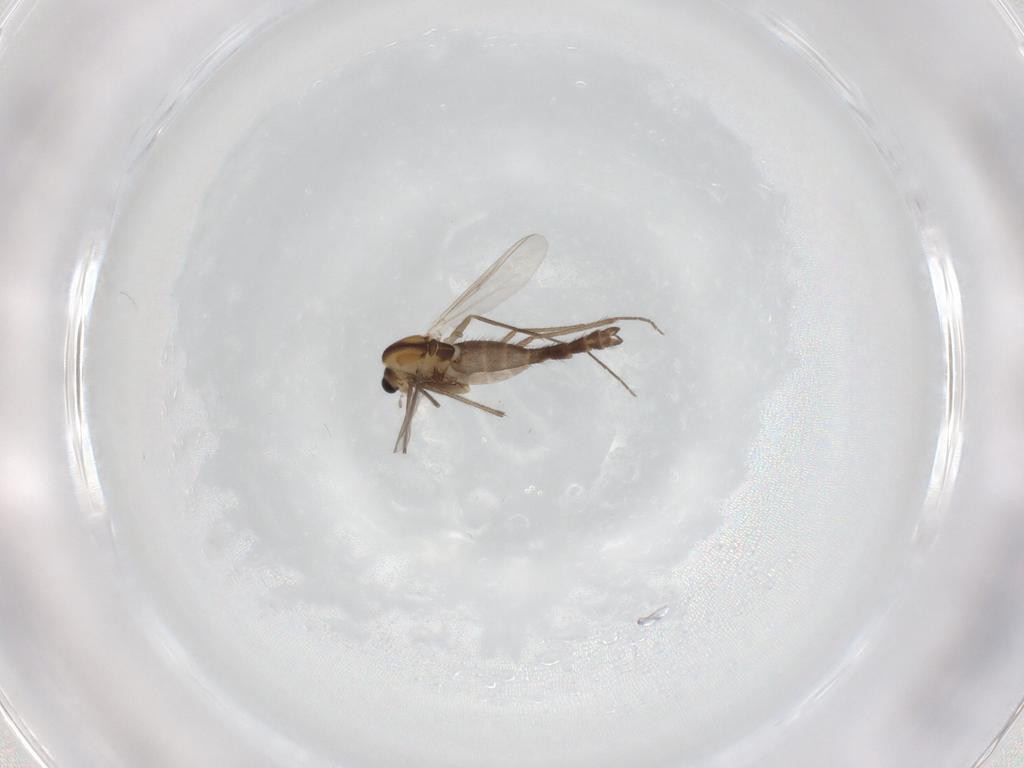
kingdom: Animalia
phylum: Arthropoda
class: Insecta
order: Diptera
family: Chironomidae
